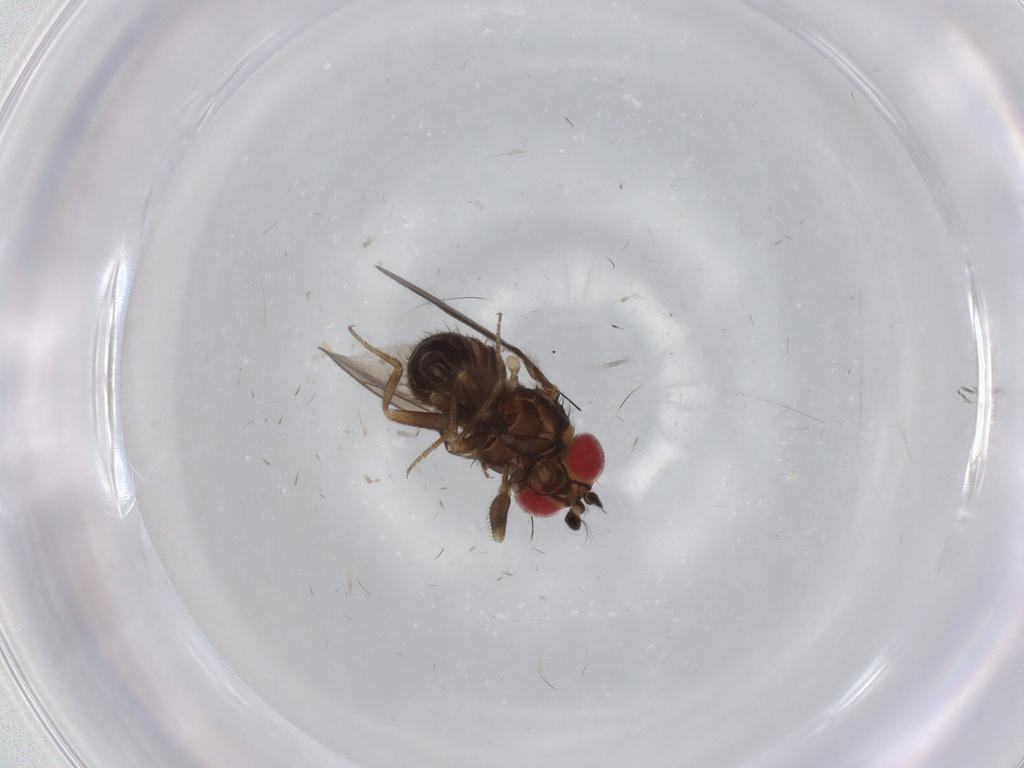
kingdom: Animalia
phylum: Arthropoda
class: Insecta
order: Diptera
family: Drosophilidae
